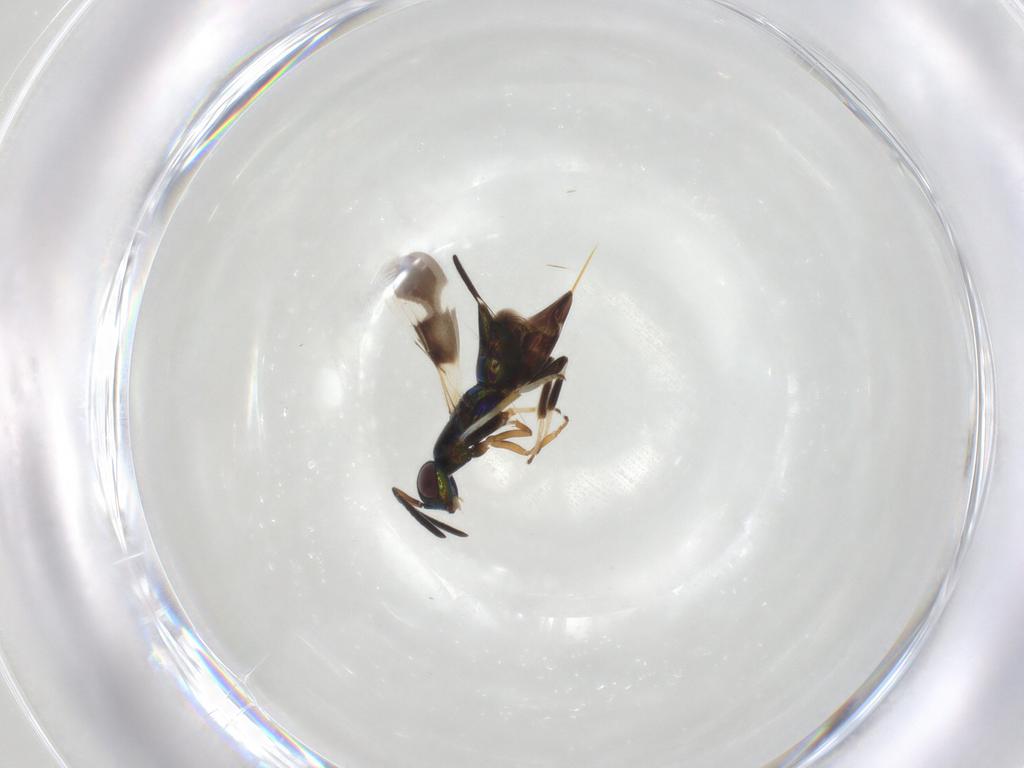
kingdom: Animalia
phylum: Arthropoda
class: Insecta
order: Hymenoptera
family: Encyrtidae
